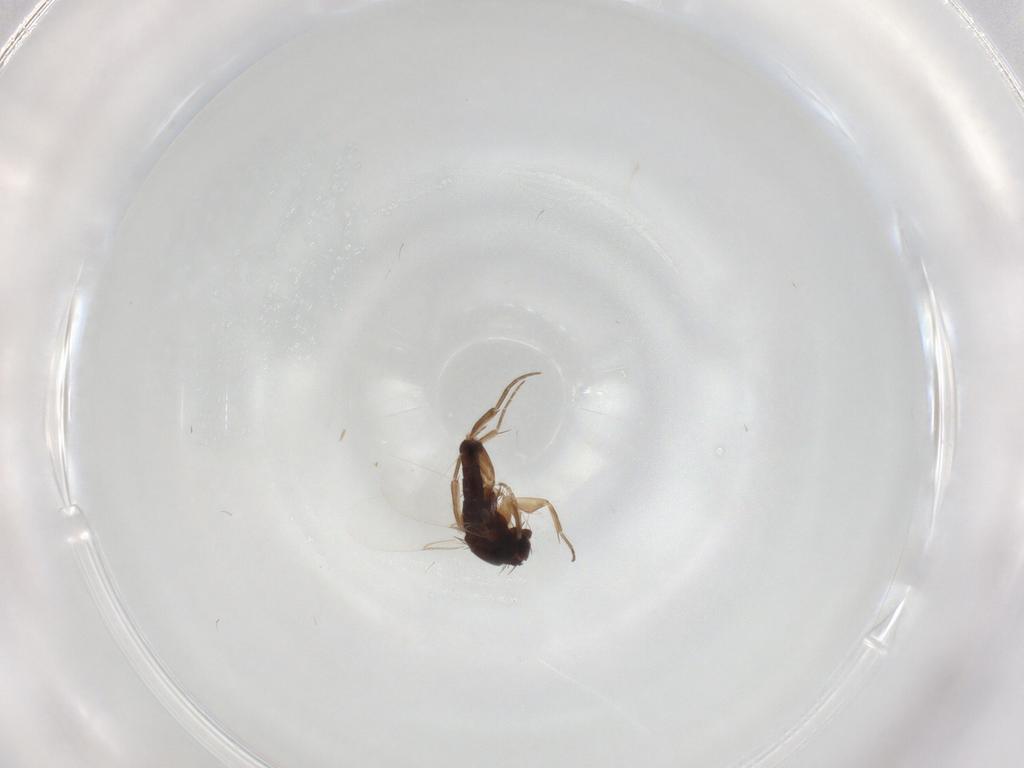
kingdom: Animalia
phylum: Arthropoda
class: Insecta
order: Diptera
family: Phoridae
